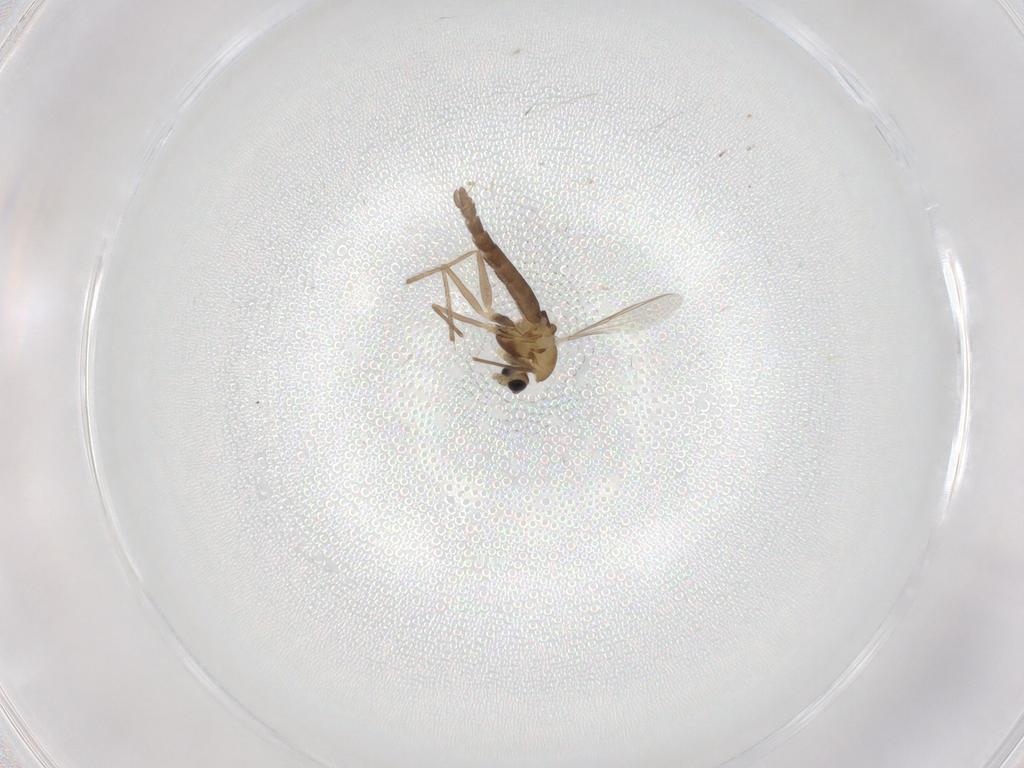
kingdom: Animalia
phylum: Arthropoda
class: Insecta
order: Diptera
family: Chironomidae
